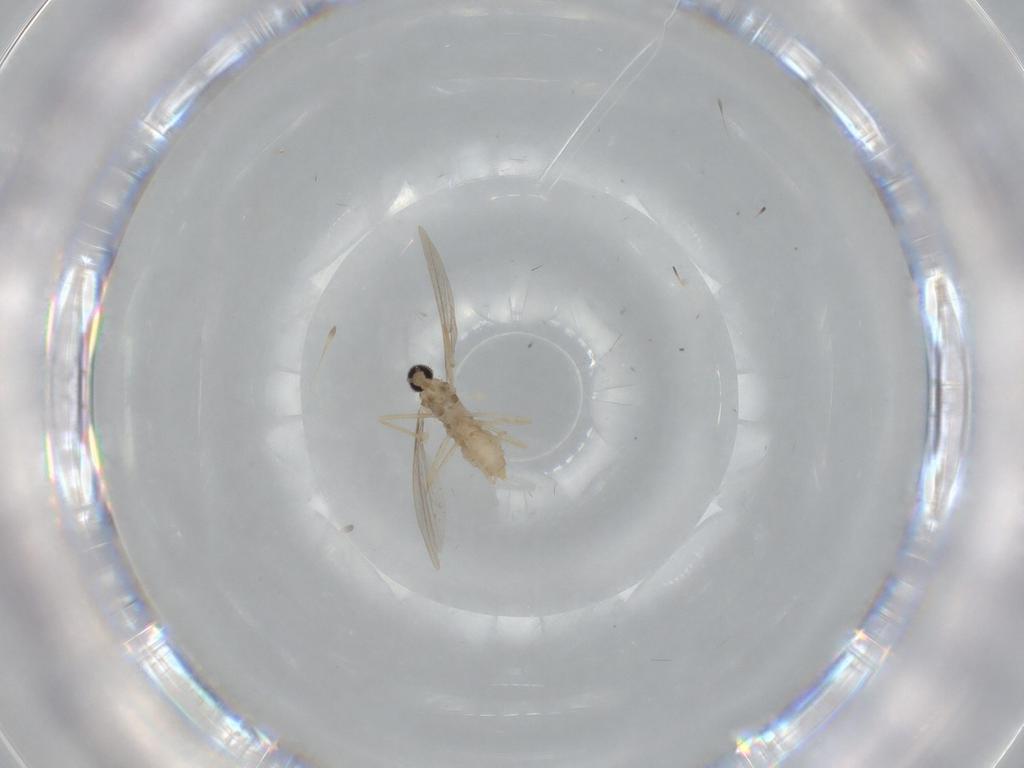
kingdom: Animalia
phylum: Arthropoda
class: Insecta
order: Diptera
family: Cecidomyiidae
